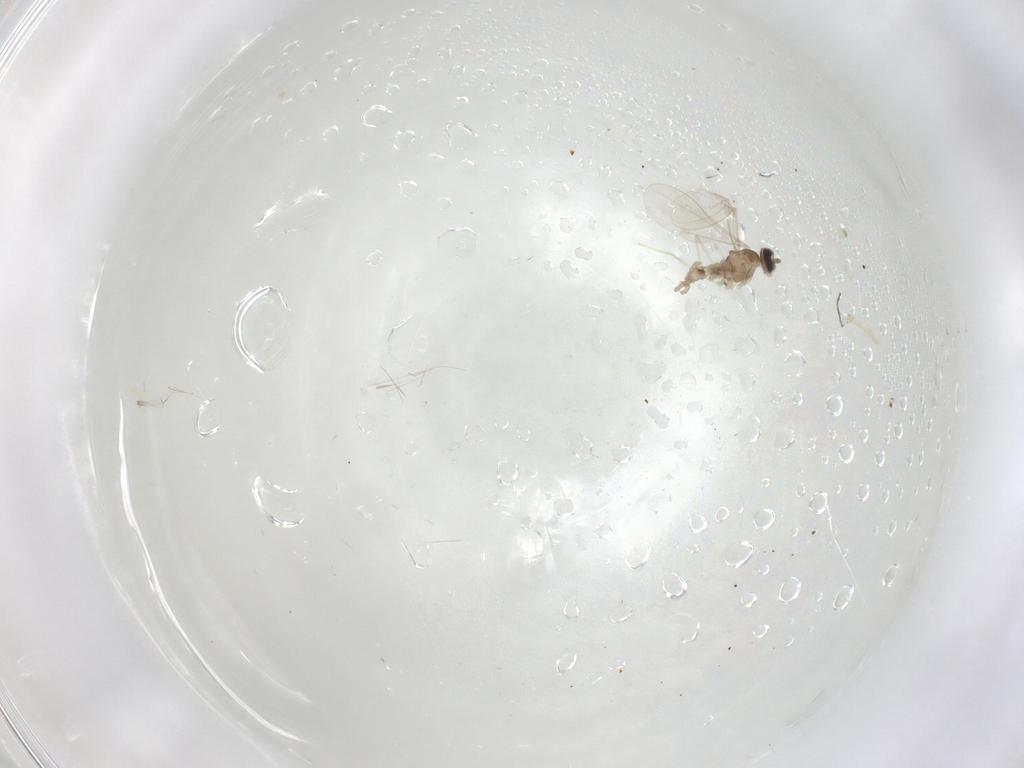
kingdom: Animalia
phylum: Arthropoda
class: Insecta
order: Diptera
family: Cecidomyiidae
